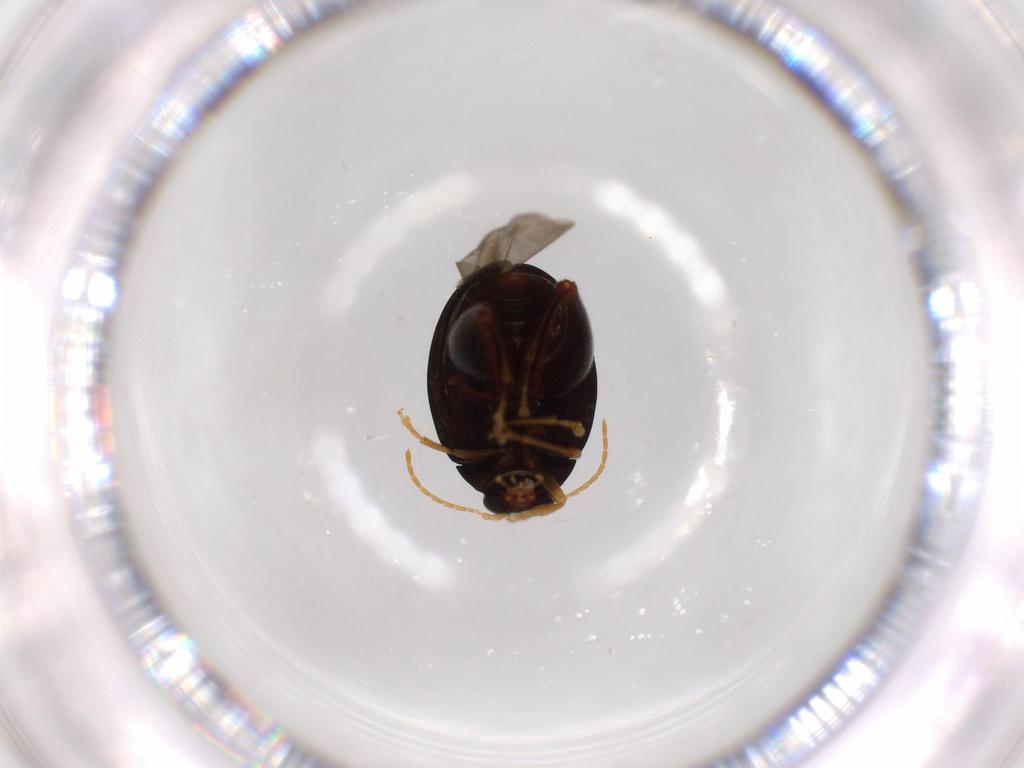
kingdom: Animalia
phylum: Arthropoda
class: Insecta
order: Coleoptera
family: Chrysomelidae
